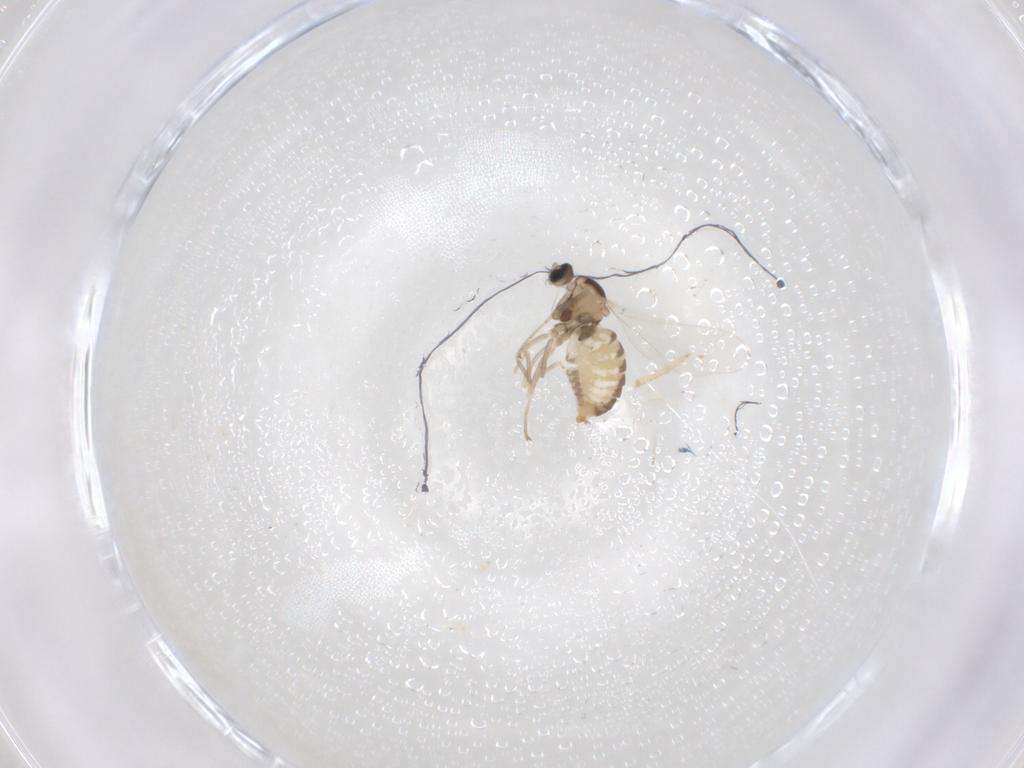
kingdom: Animalia
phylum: Arthropoda
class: Insecta
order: Diptera
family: Cecidomyiidae
